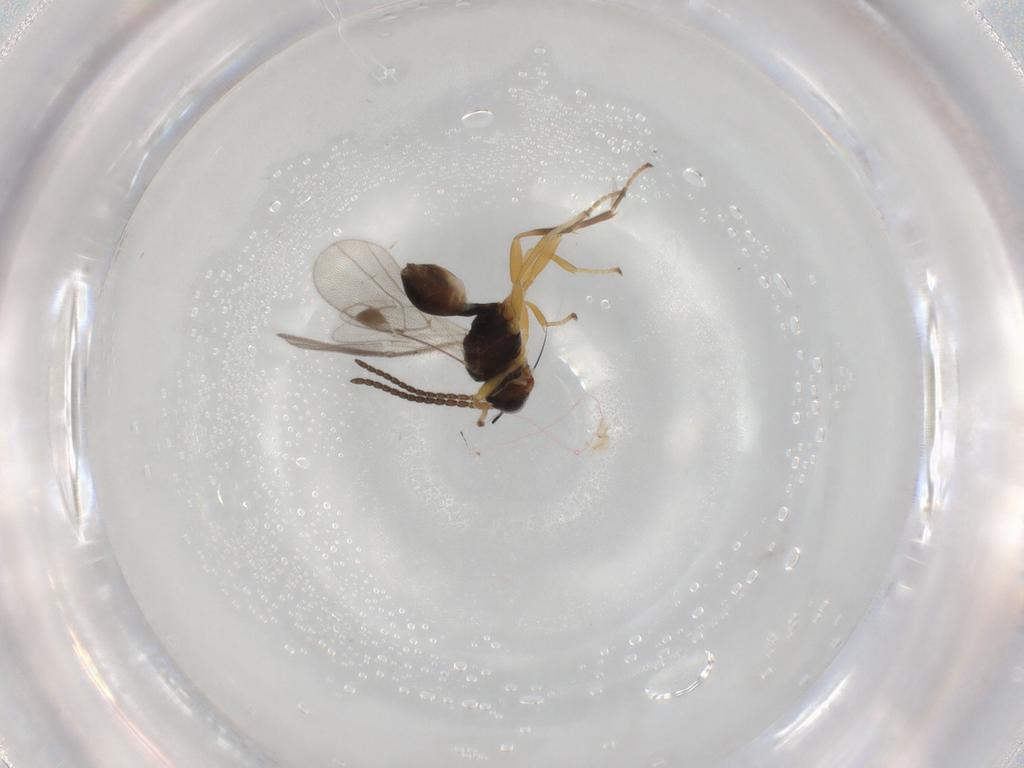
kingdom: Animalia
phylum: Arthropoda
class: Insecta
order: Hymenoptera
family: Braconidae
